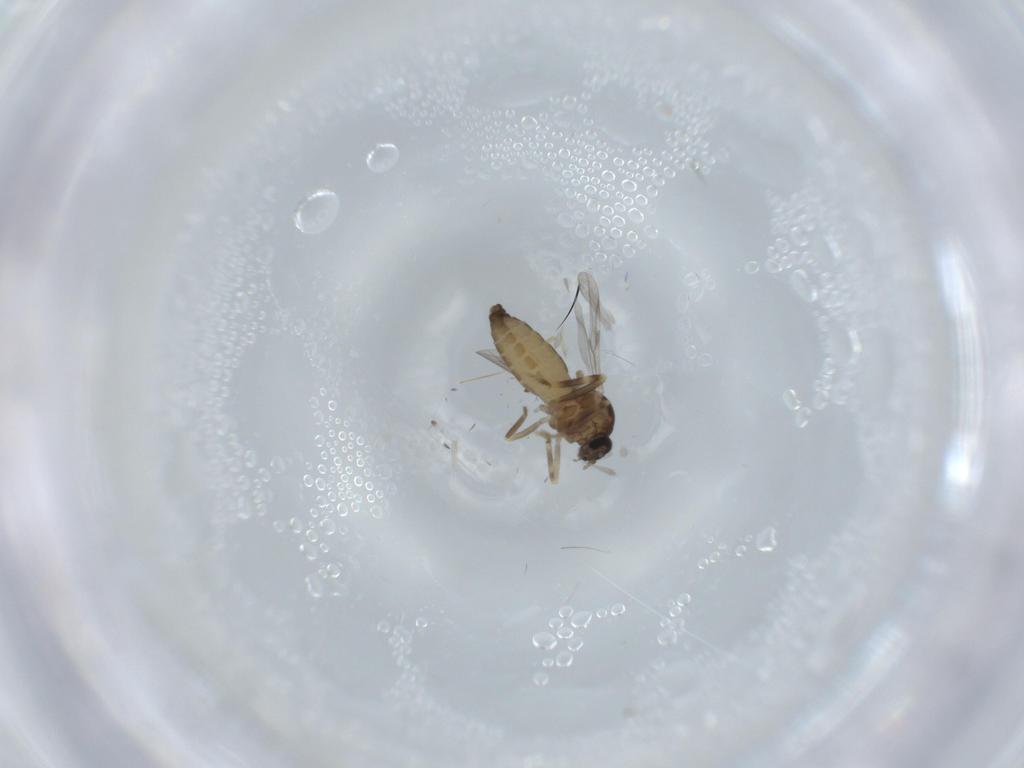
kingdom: Animalia
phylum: Arthropoda
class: Insecta
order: Diptera
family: Ceratopogonidae
